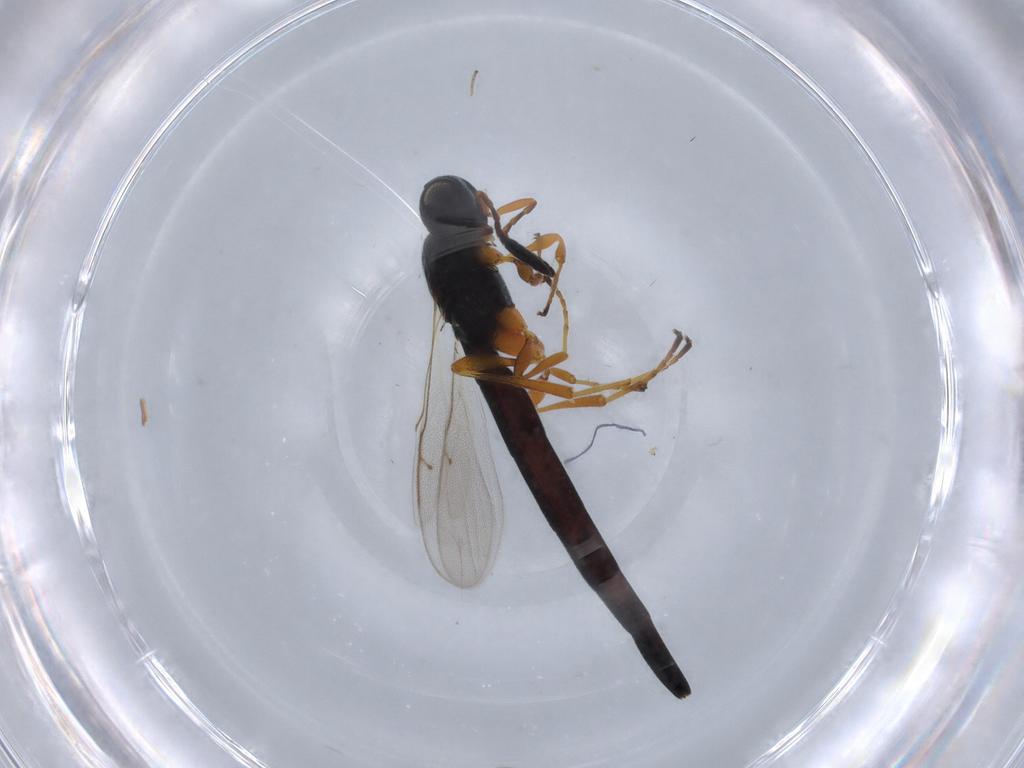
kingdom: Animalia
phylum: Arthropoda
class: Insecta
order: Hymenoptera
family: Scelionidae
